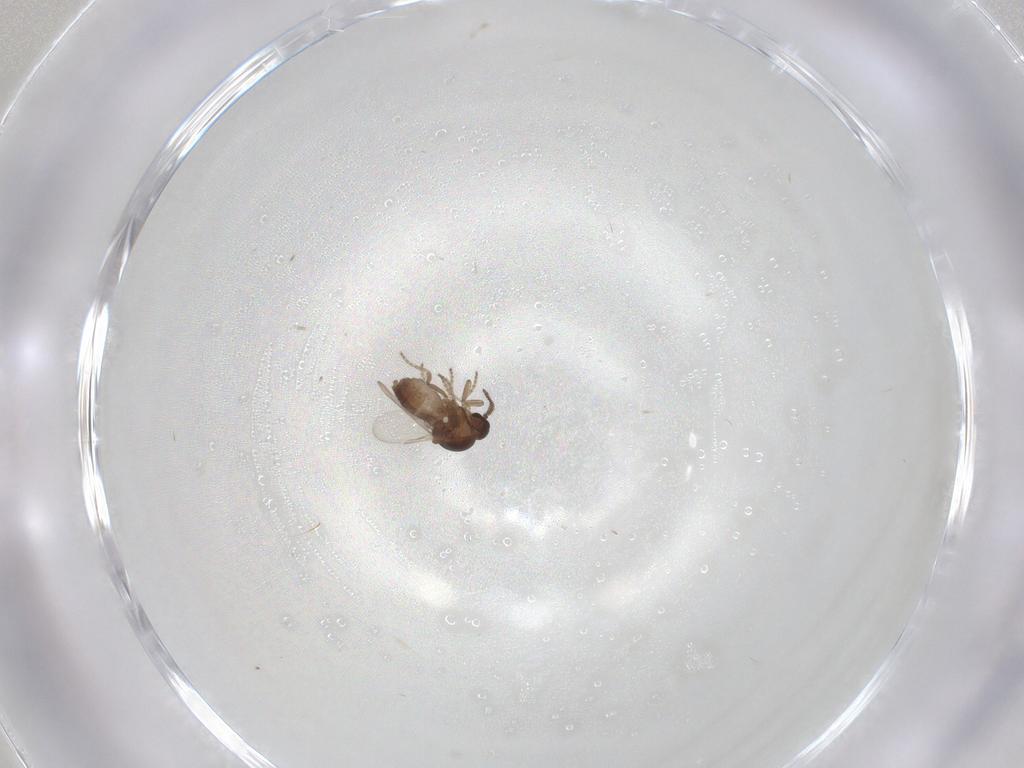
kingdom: Animalia
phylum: Arthropoda
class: Insecta
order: Diptera
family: Ceratopogonidae
